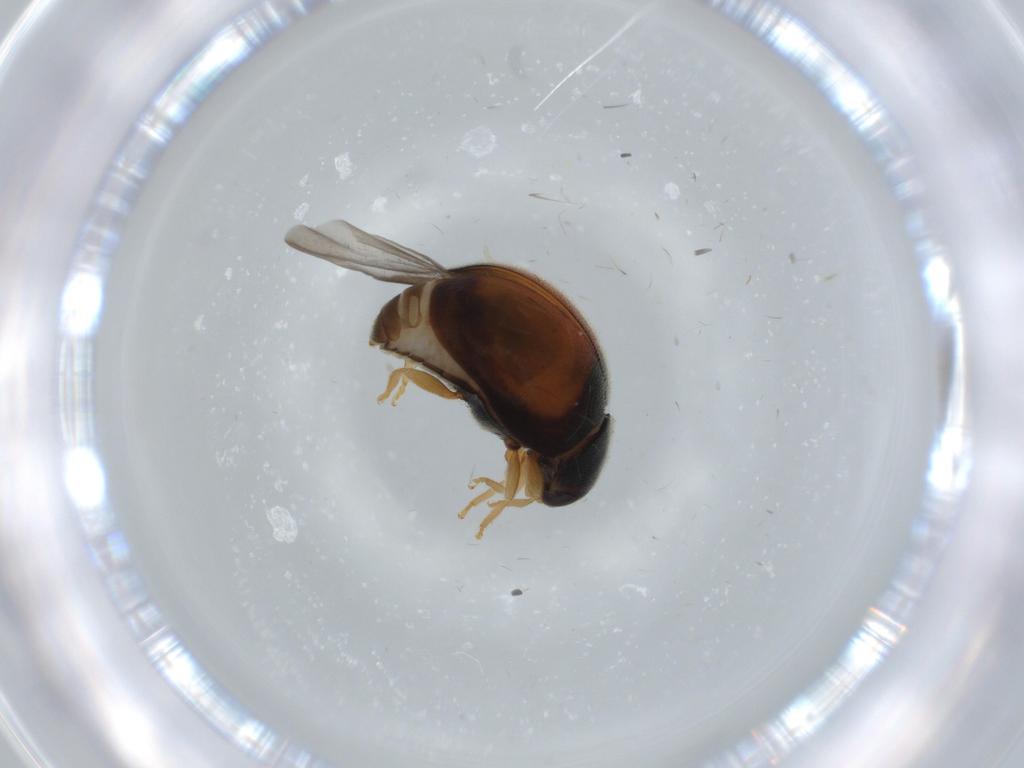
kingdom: Animalia
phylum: Arthropoda
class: Insecta
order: Coleoptera
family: Coccinellidae
